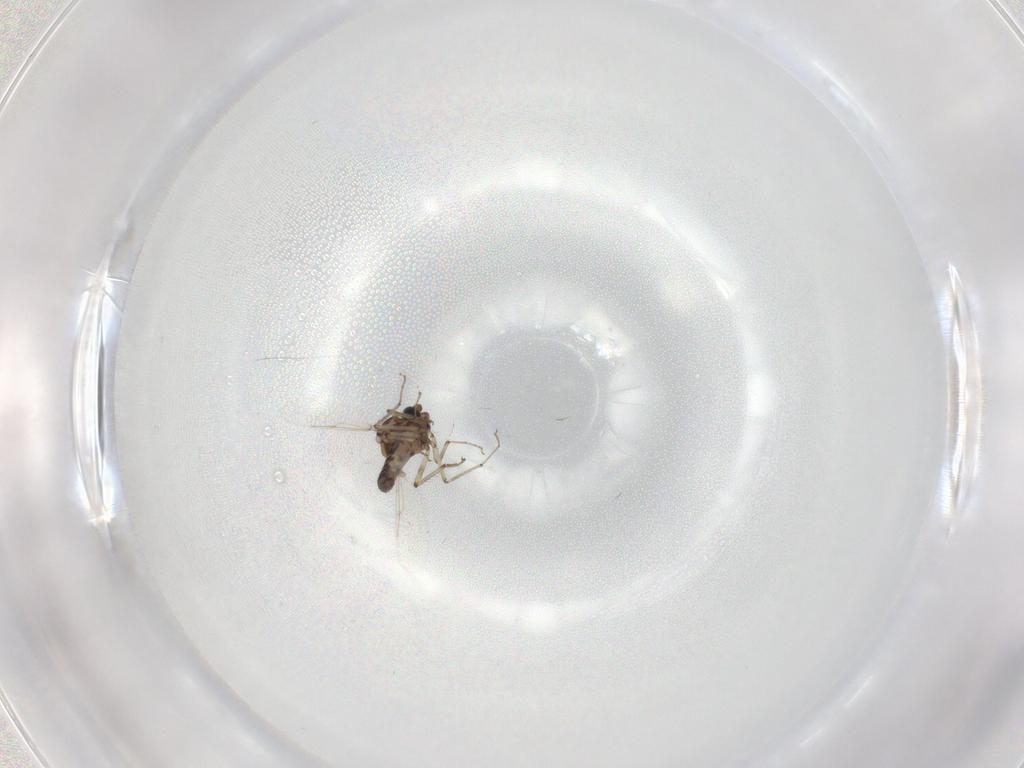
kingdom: Animalia
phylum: Arthropoda
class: Insecta
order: Diptera
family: Ceratopogonidae
